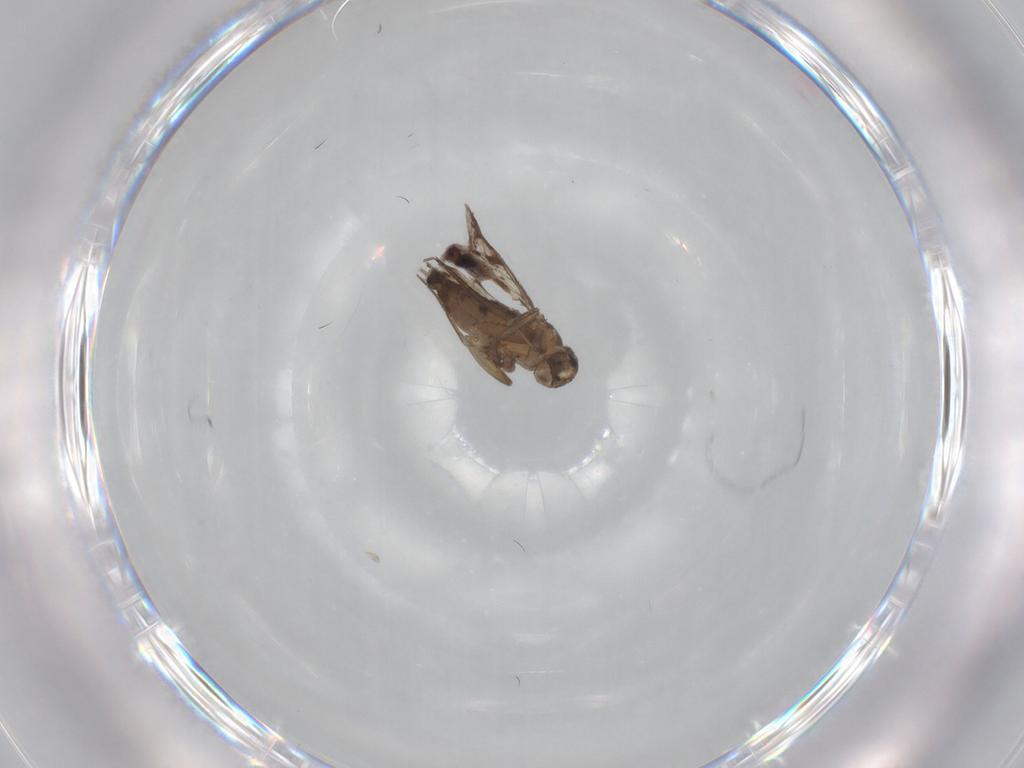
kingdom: Animalia
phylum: Arthropoda
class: Insecta
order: Diptera
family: Phoridae
